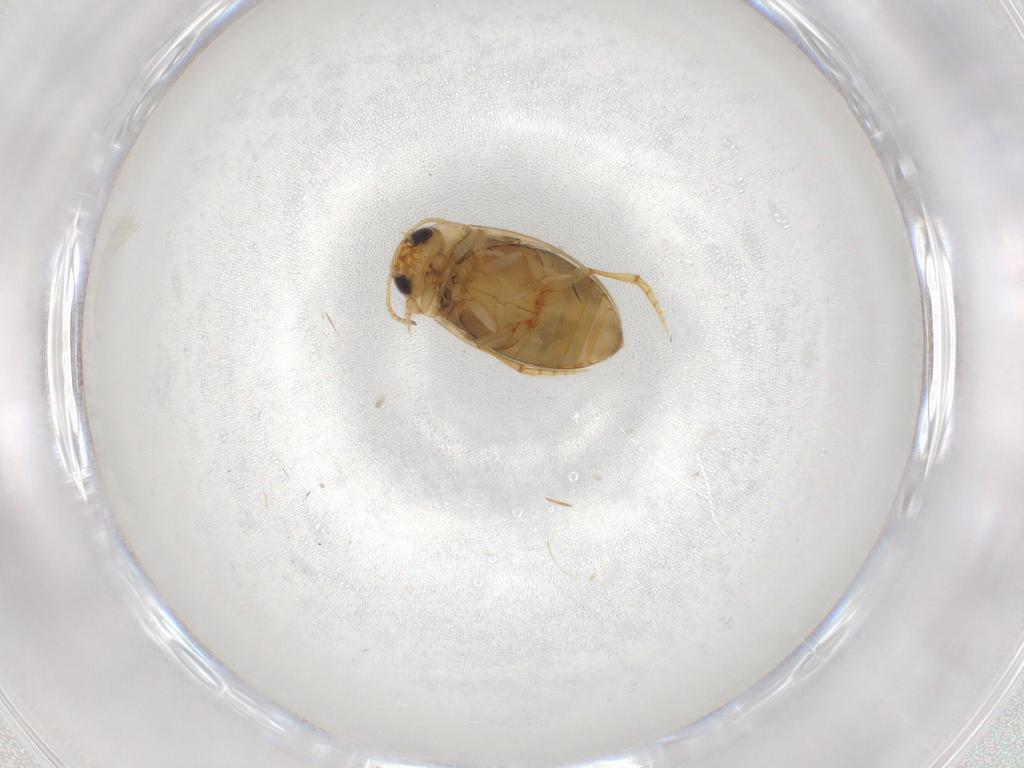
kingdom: Animalia
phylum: Arthropoda
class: Insecta
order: Coleoptera
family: Dytiscidae
